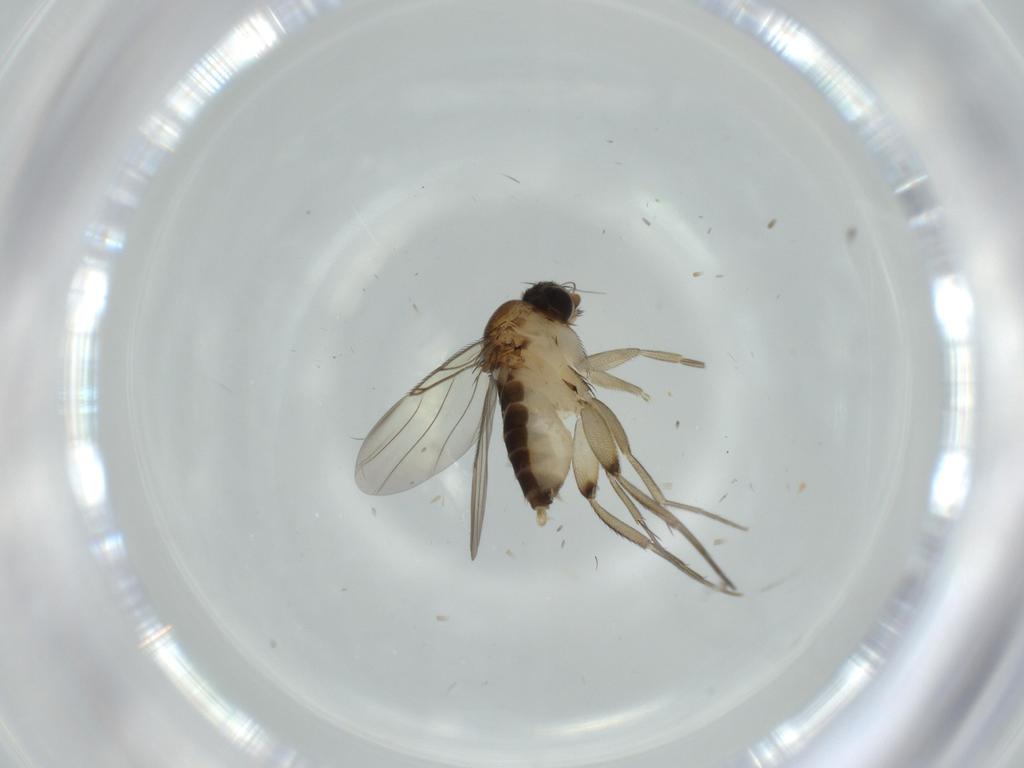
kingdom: Animalia
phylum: Arthropoda
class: Insecta
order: Diptera
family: Phoridae
